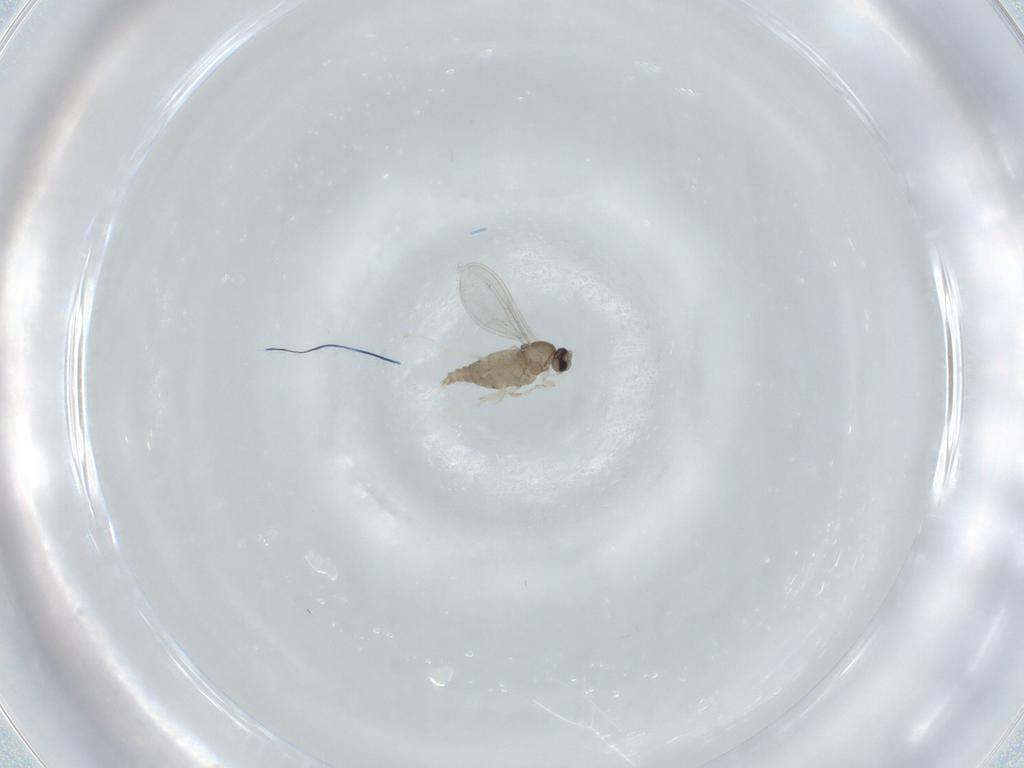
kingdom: Animalia
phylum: Arthropoda
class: Insecta
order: Diptera
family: Cecidomyiidae
